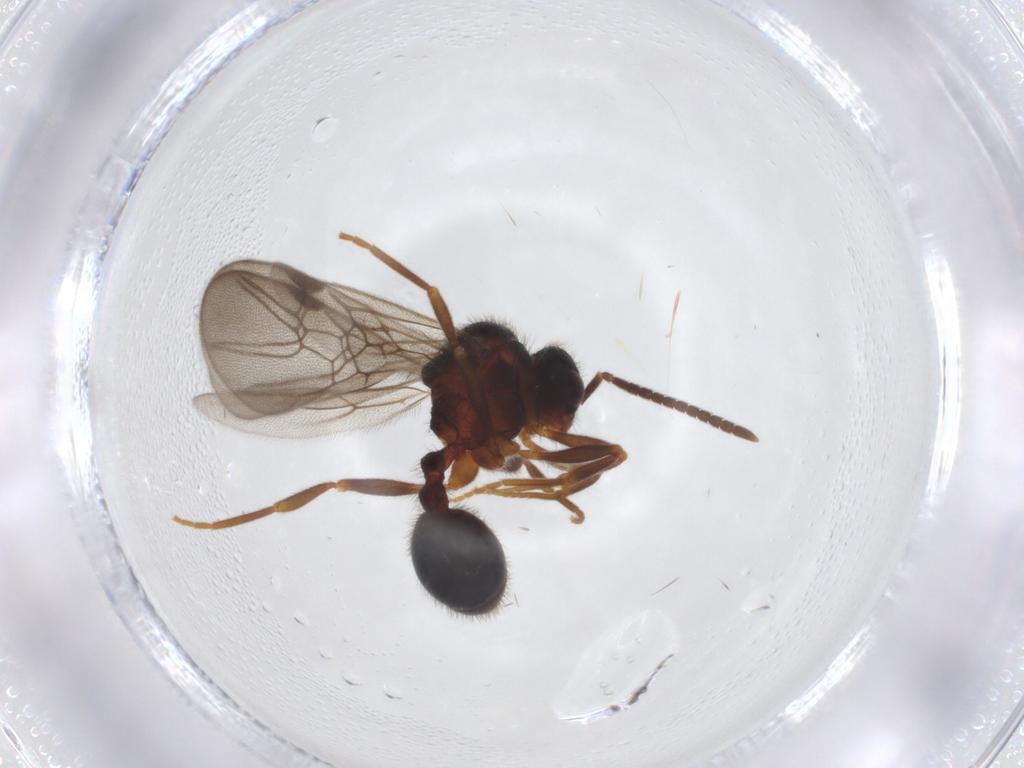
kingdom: Animalia
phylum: Arthropoda
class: Insecta
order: Hymenoptera
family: Formicidae
